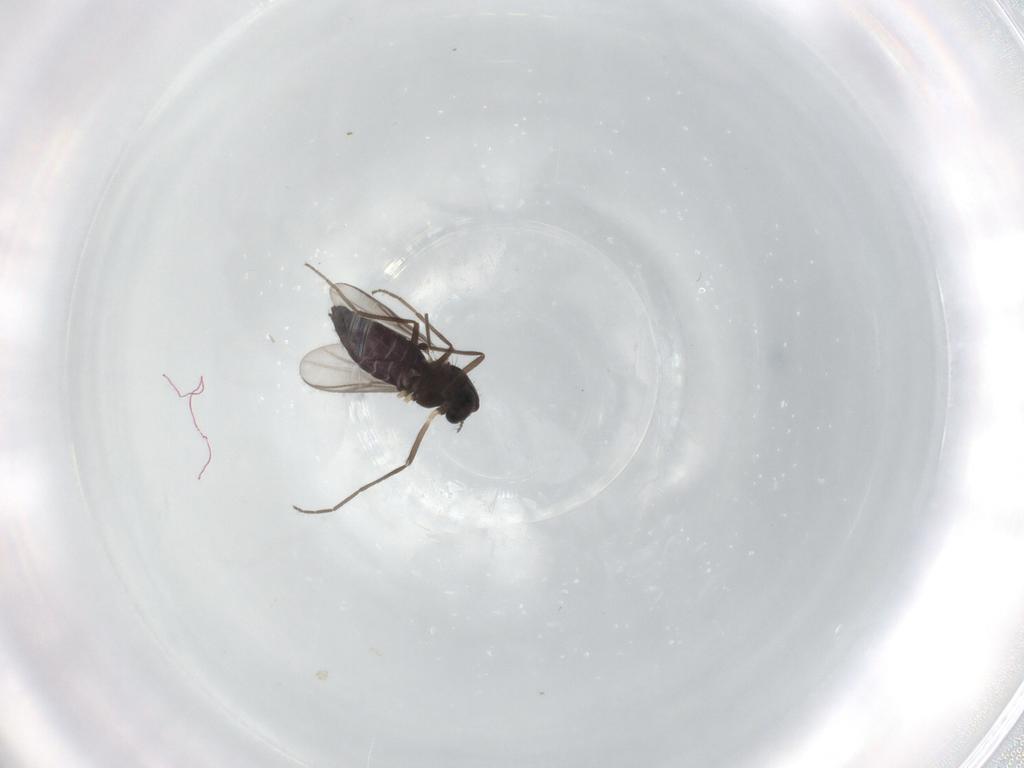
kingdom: Animalia
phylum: Arthropoda
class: Insecta
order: Diptera
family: Chironomidae
